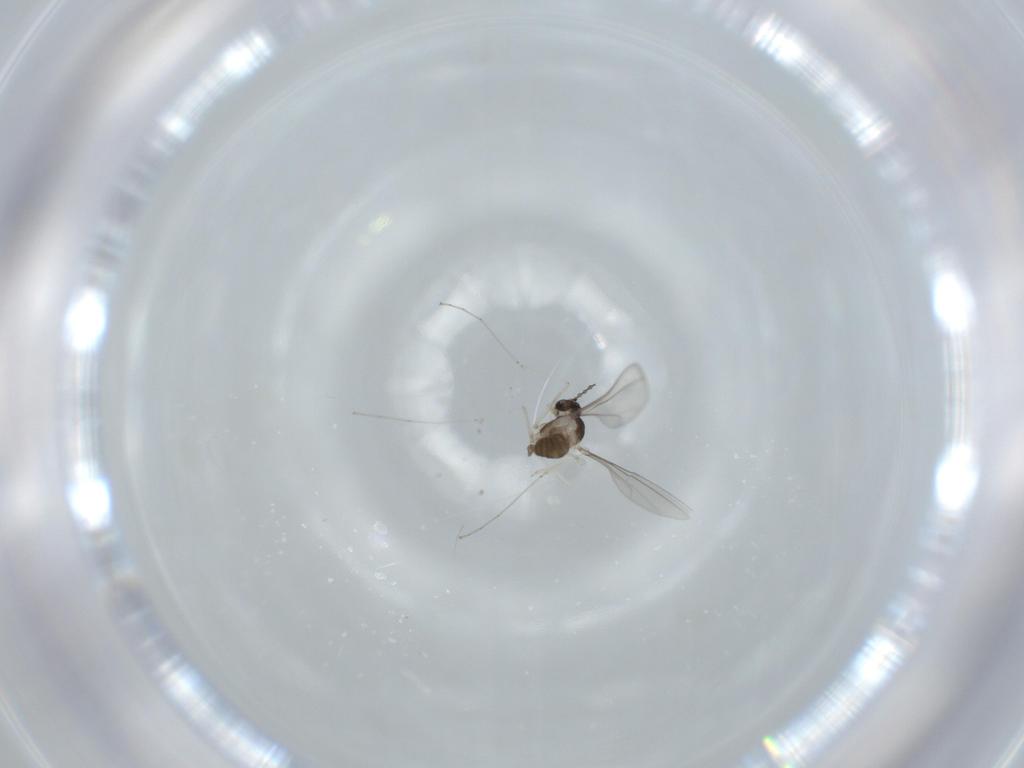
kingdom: Animalia
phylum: Arthropoda
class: Insecta
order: Diptera
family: Cecidomyiidae
